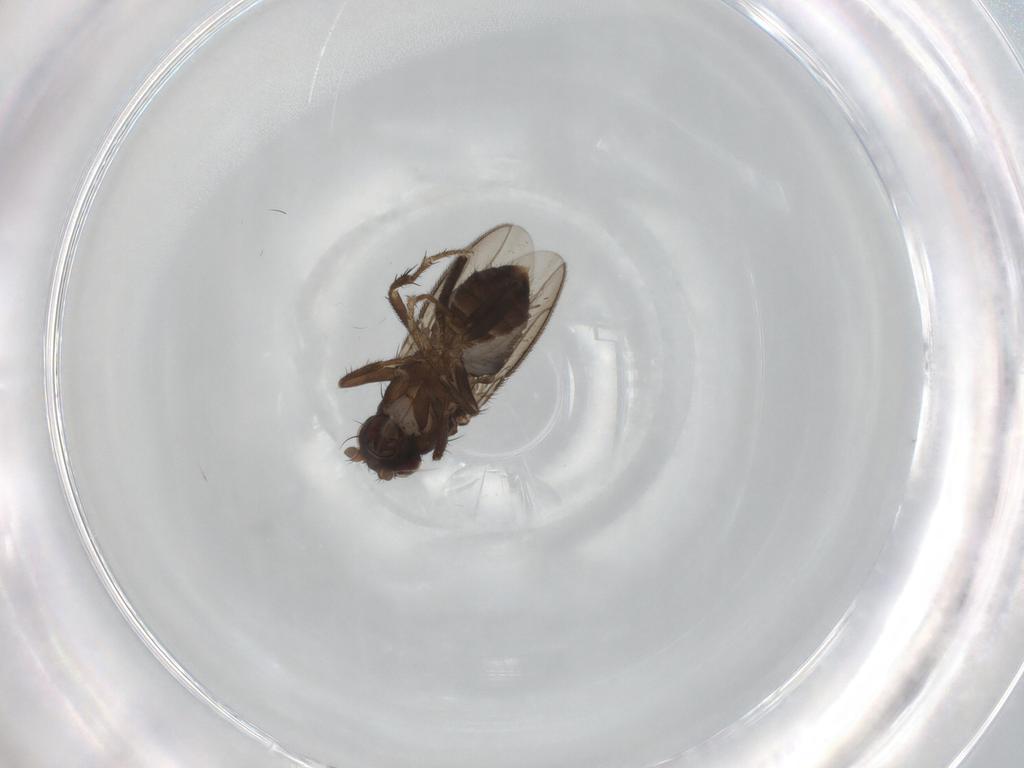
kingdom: Animalia
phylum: Arthropoda
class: Insecta
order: Diptera
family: Sphaeroceridae
